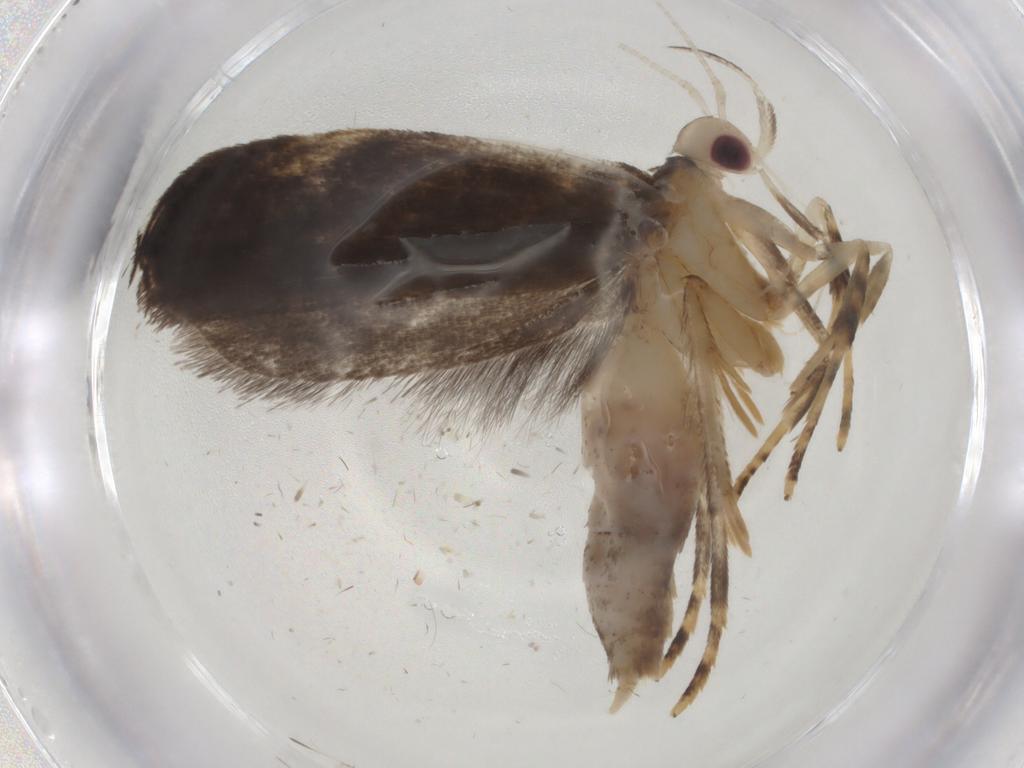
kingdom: Animalia
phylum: Arthropoda
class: Insecta
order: Lepidoptera
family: Gelechiidae
